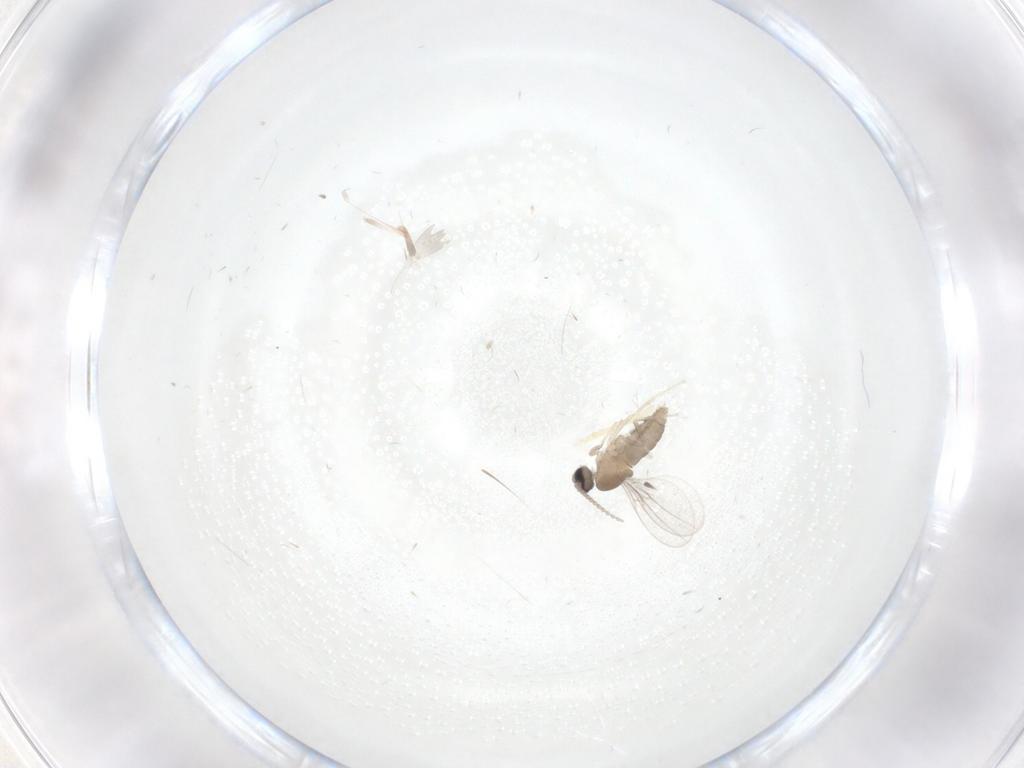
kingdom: Animalia
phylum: Arthropoda
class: Insecta
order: Diptera
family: Cecidomyiidae
